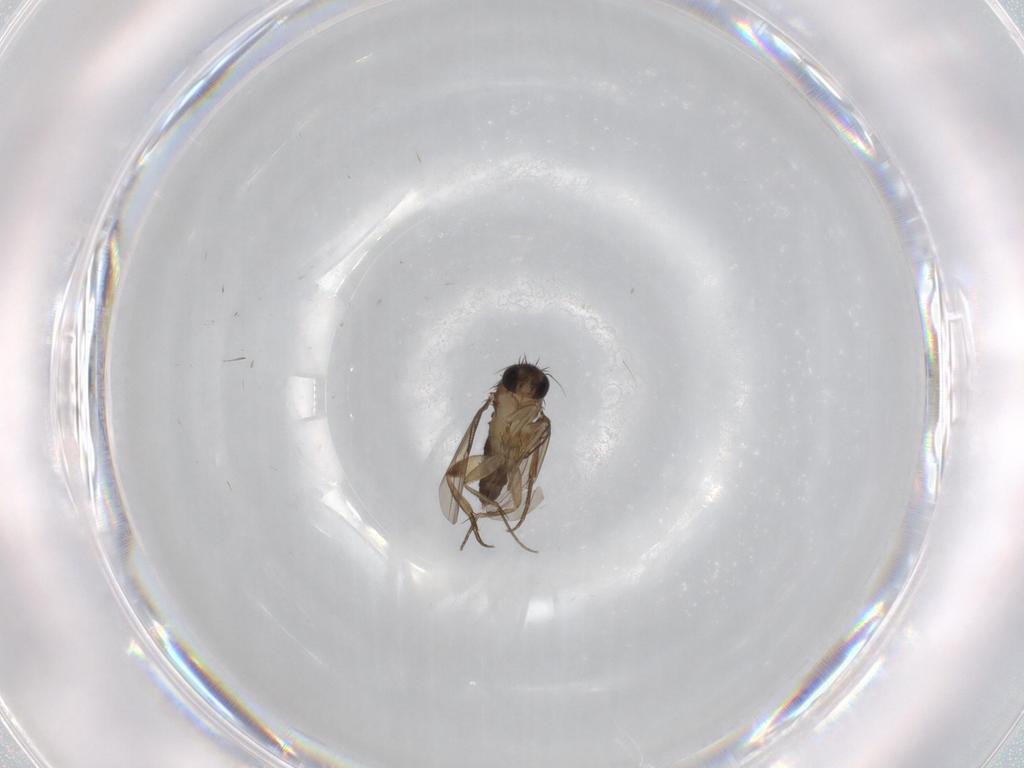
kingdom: Animalia
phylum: Arthropoda
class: Insecta
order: Diptera
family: Phoridae
